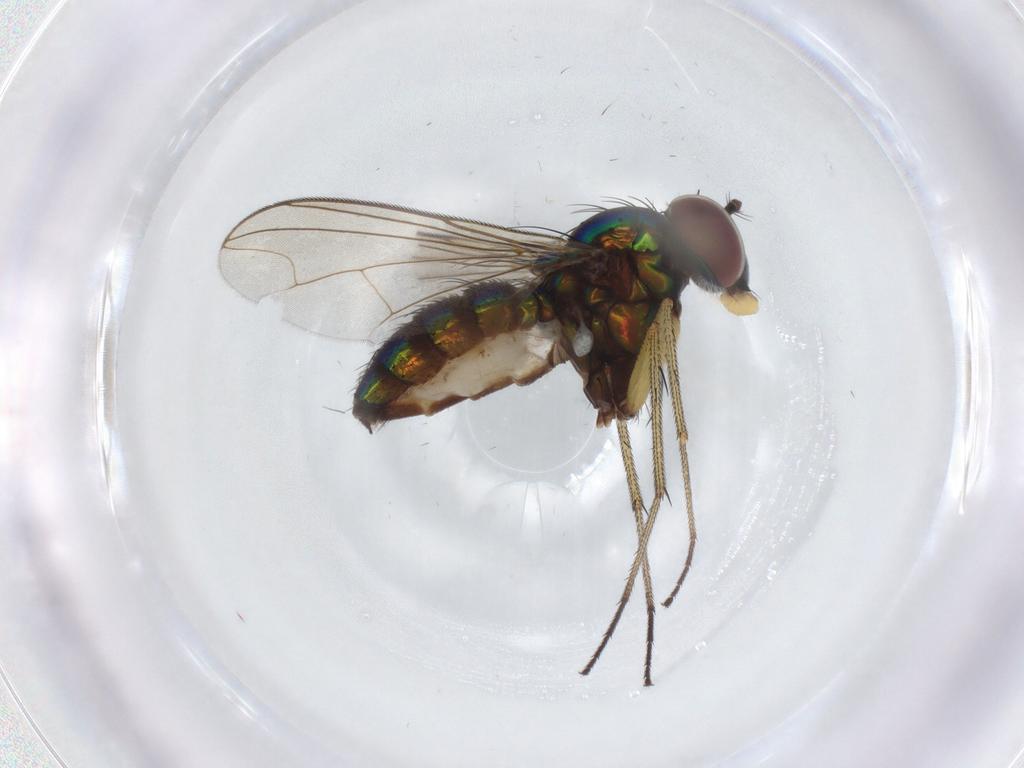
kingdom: Animalia
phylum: Arthropoda
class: Insecta
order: Diptera
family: Dolichopodidae
